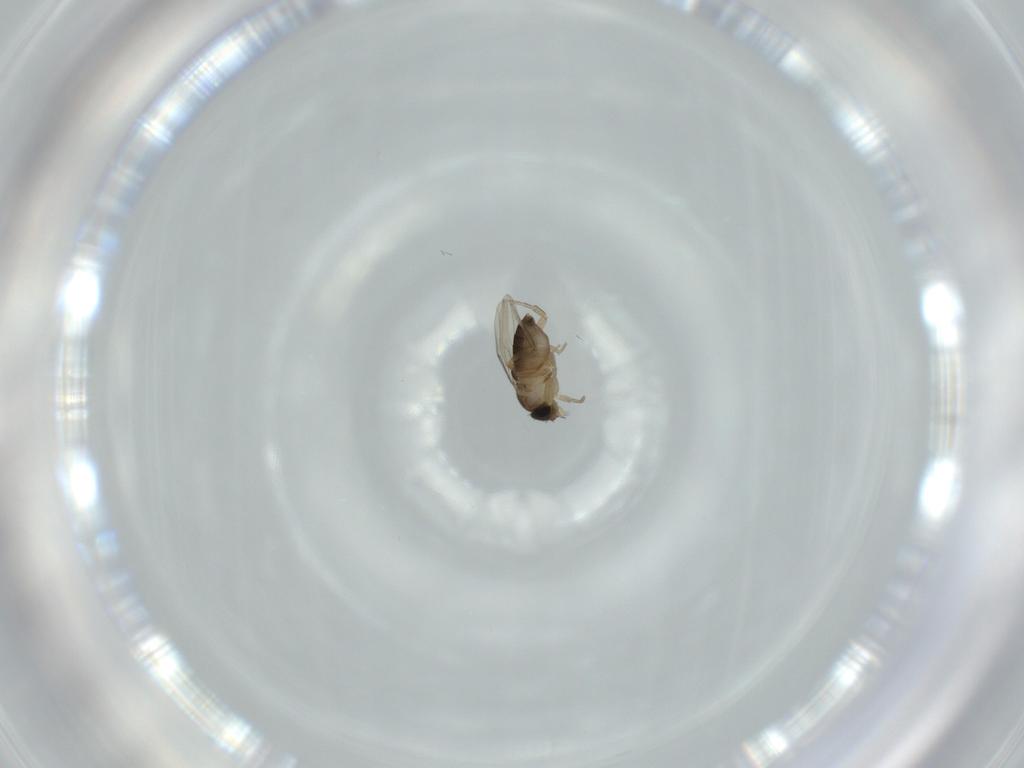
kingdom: Animalia
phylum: Arthropoda
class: Insecta
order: Diptera
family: Phoridae
